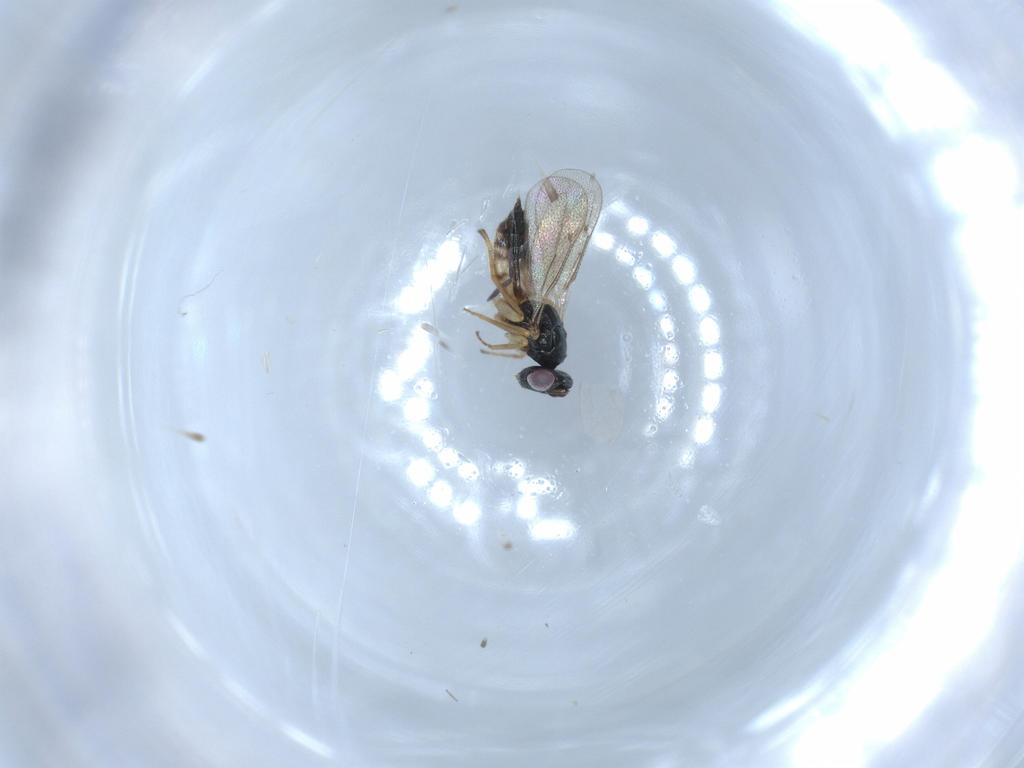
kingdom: Animalia
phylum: Arthropoda
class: Insecta
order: Hymenoptera
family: Eulophidae
